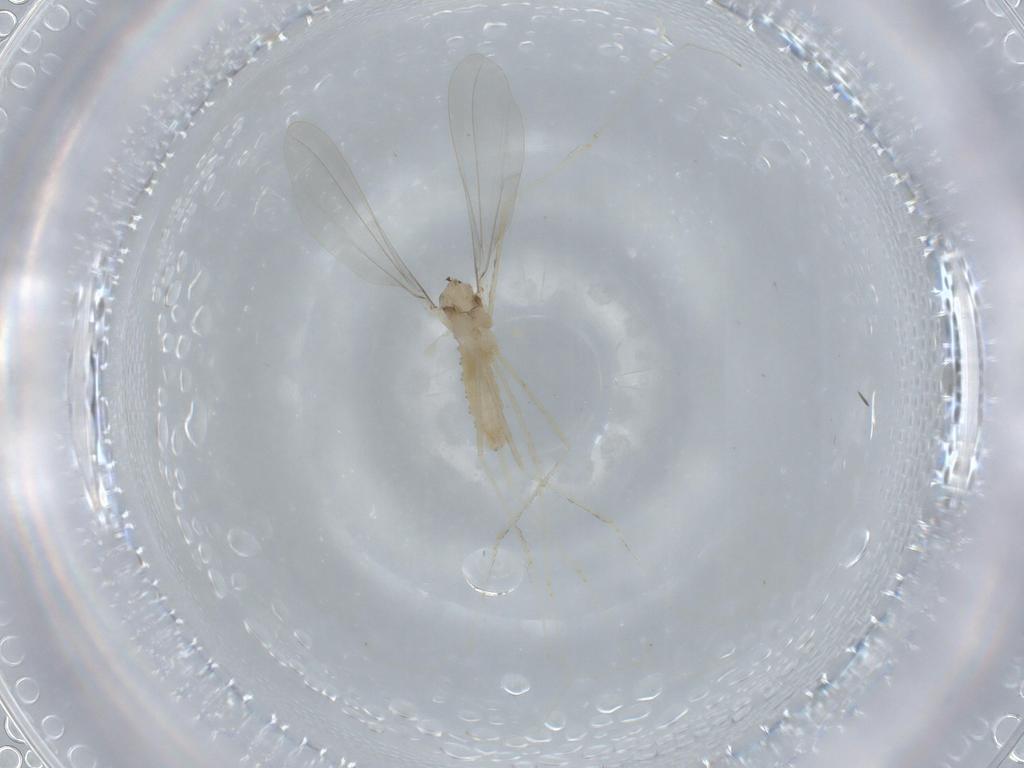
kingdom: Animalia
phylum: Arthropoda
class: Insecta
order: Diptera
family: Cecidomyiidae
